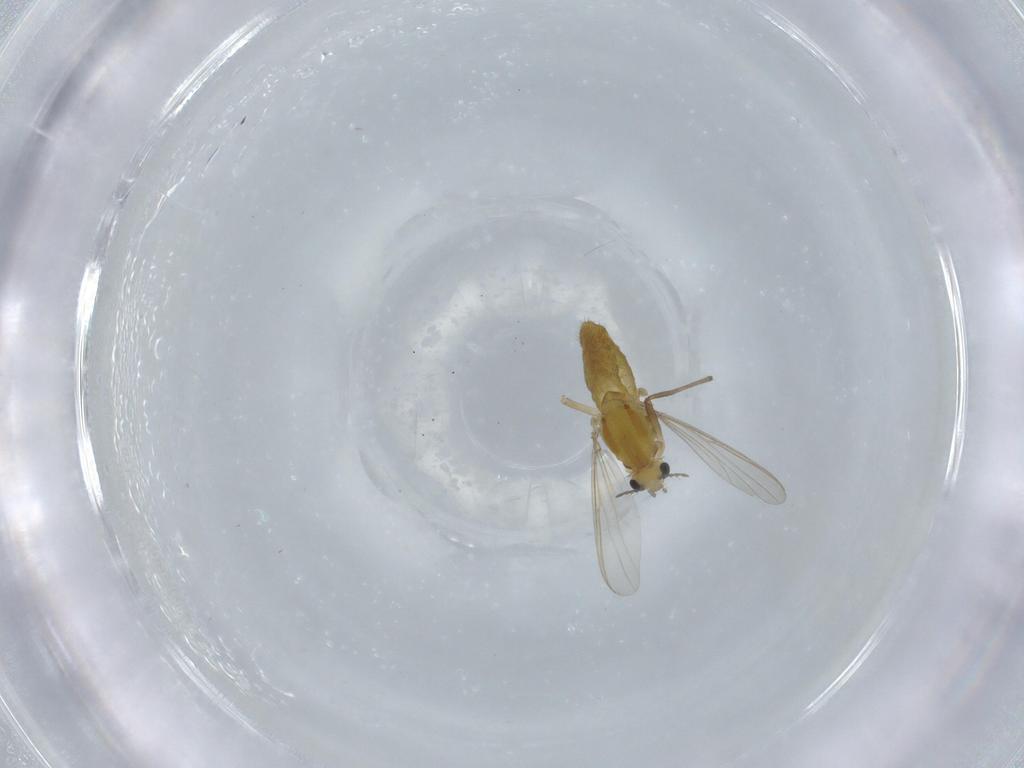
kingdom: Animalia
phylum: Arthropoda
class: Insecta
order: Diptera
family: Chironomidae
